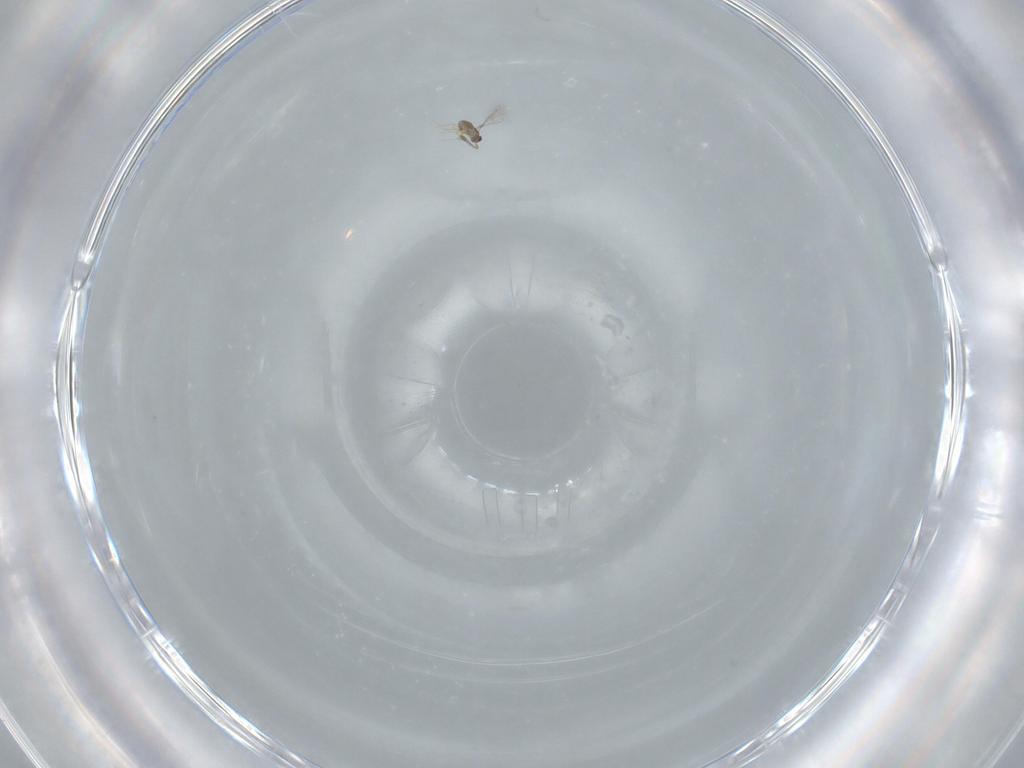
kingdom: Animalia
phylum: Arthropoda
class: Insecta
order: Hymenoptera
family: Mymaridae
